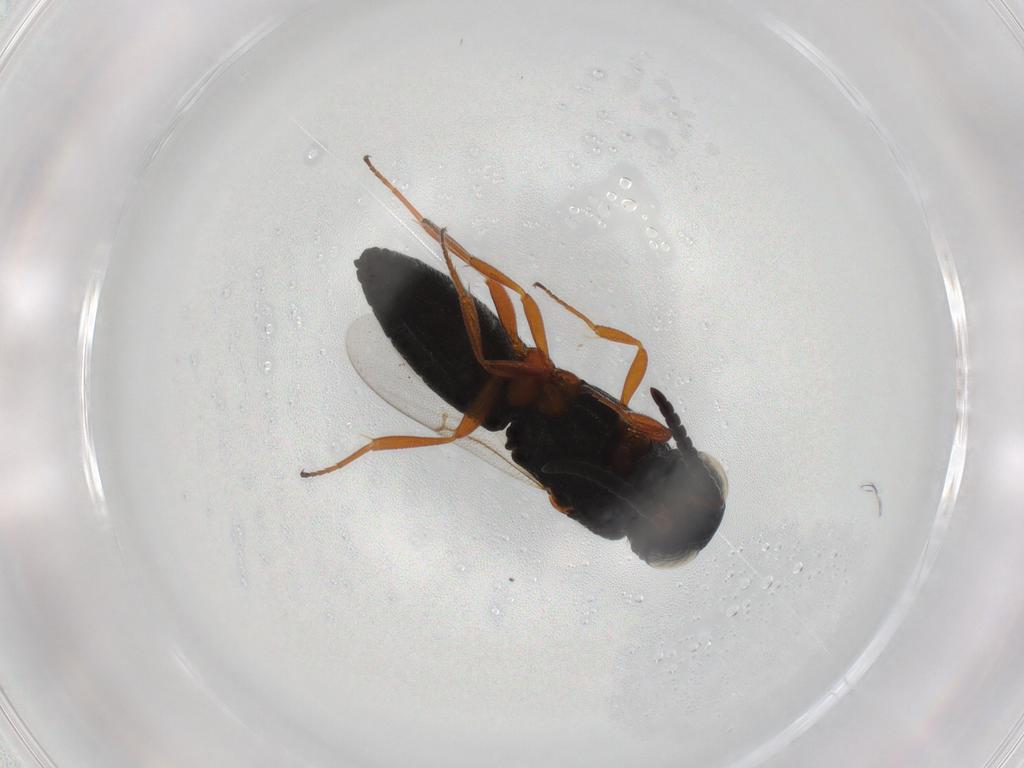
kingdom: Animalia
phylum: Arthropoda
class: Insecta
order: Hymenoptera
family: Scelionidae
